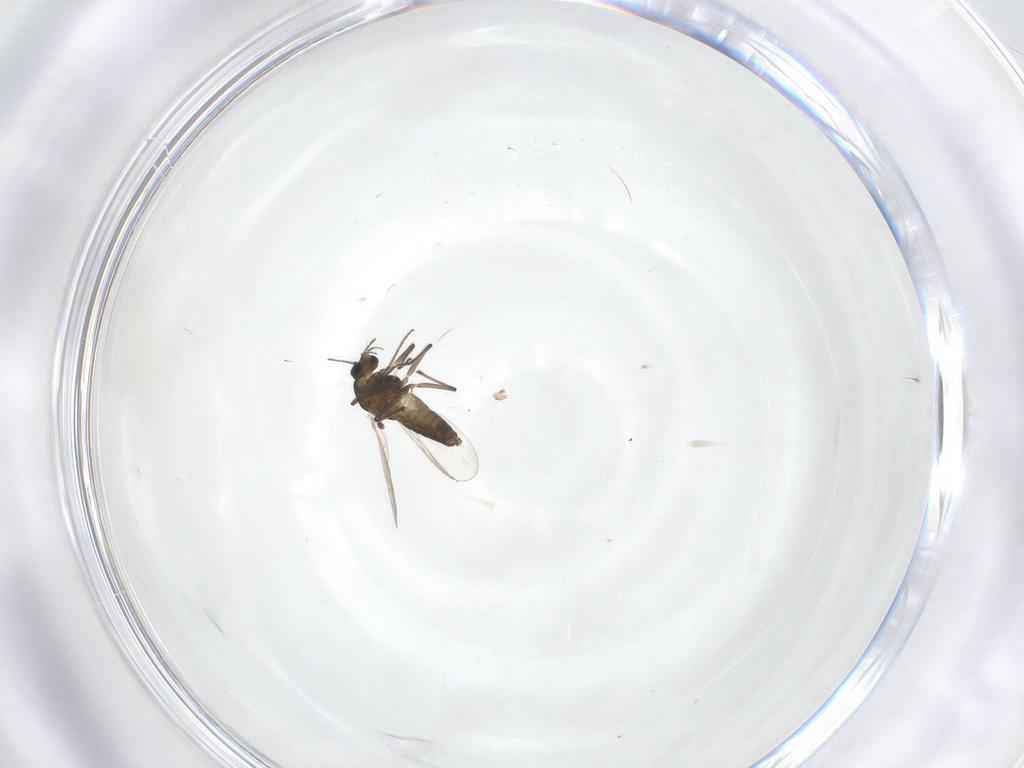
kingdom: Animalia
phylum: Arthropoda
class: Insecta
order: Diptera
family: Chironomidae
